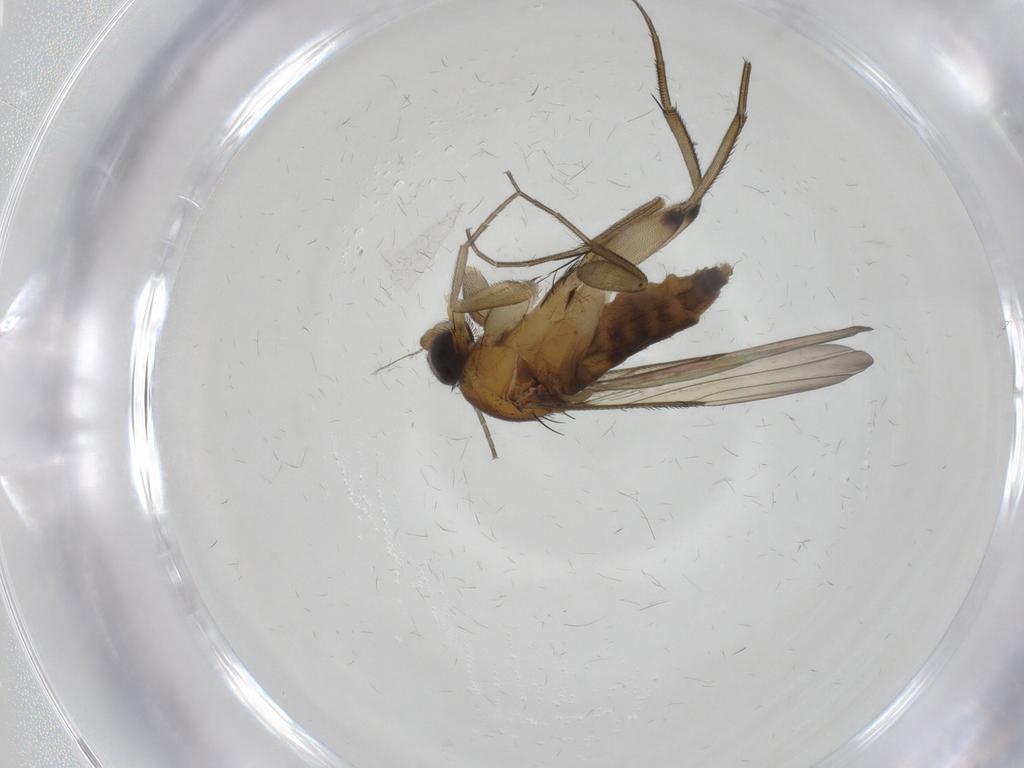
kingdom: Animalia
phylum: Arthropoda
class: Insecta
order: Diptera
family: Phoridae
